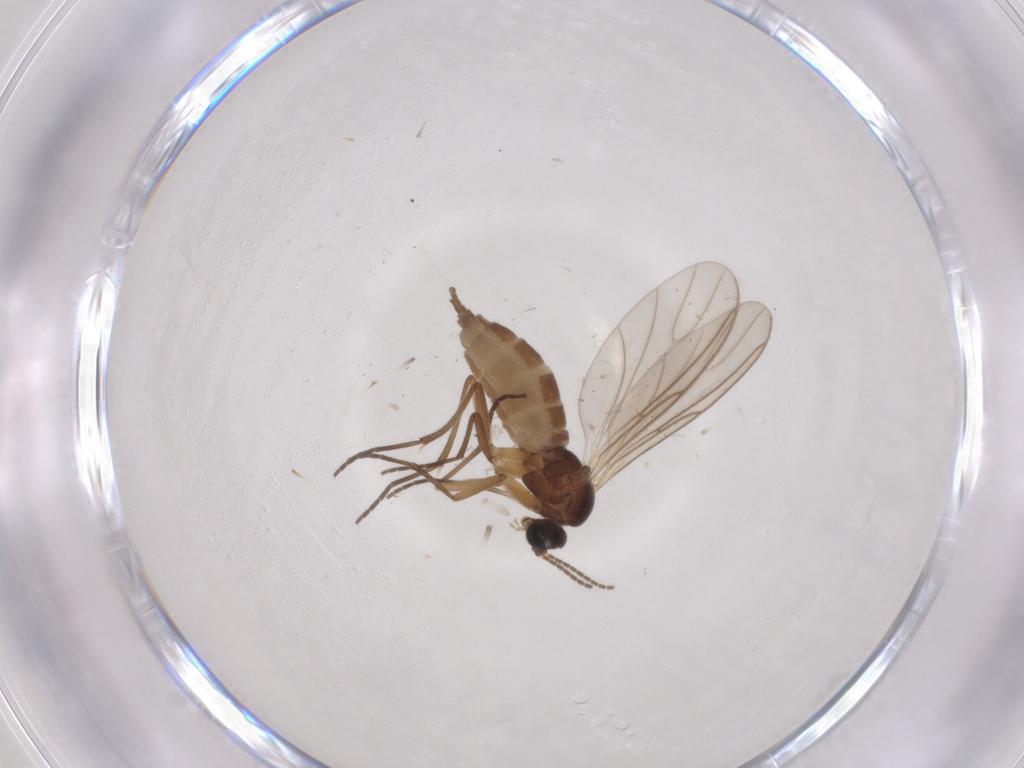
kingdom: Animalia
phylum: Arthropoda
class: Insecta
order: Diptera
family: Sciaridae
